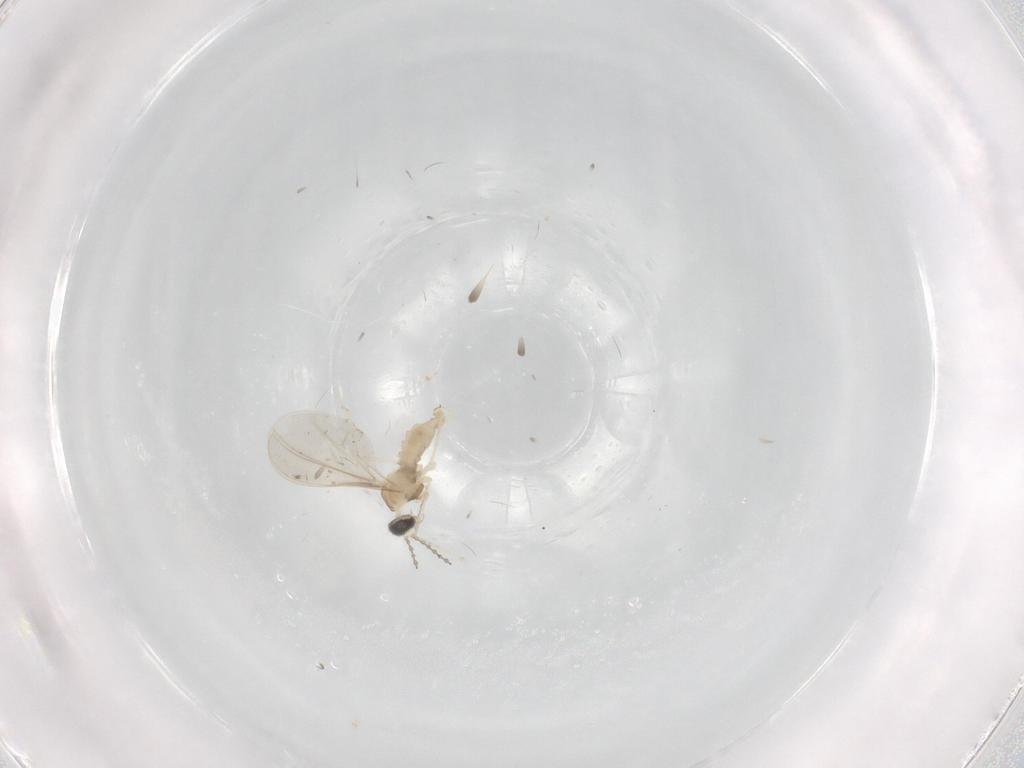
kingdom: Animalia
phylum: Arthropoda
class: Insecta
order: Diptera
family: Cecidomyiidae
